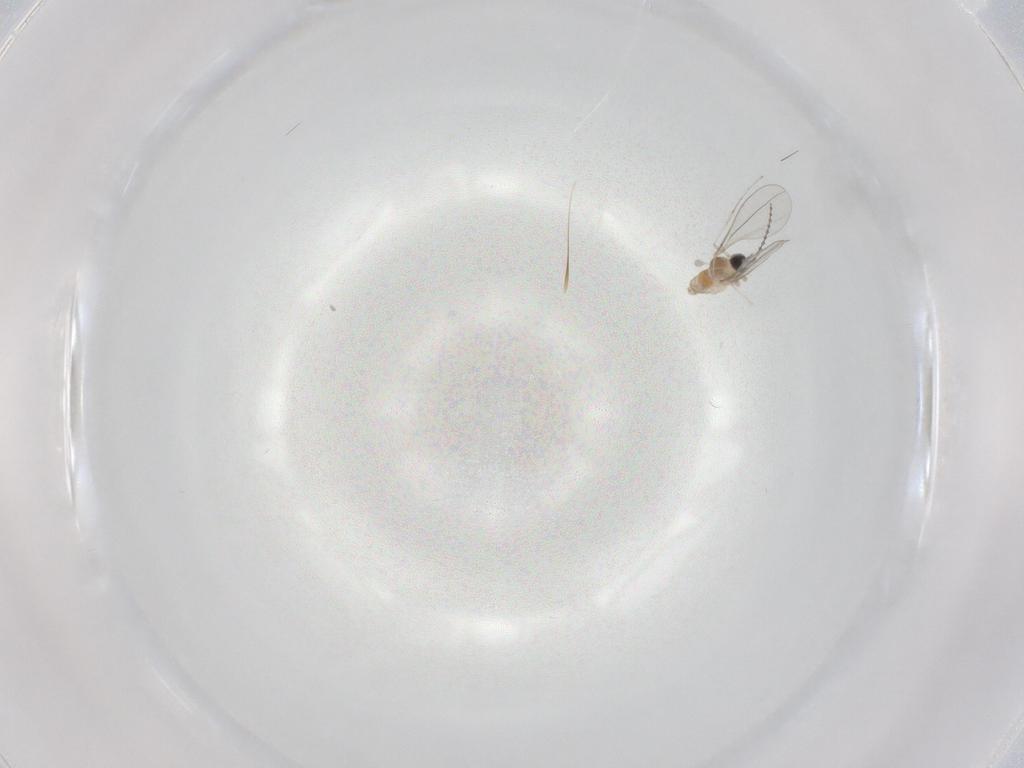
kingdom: Animalia
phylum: Arthropoda
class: Insecta
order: Diptera
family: Cecidomyiidae
